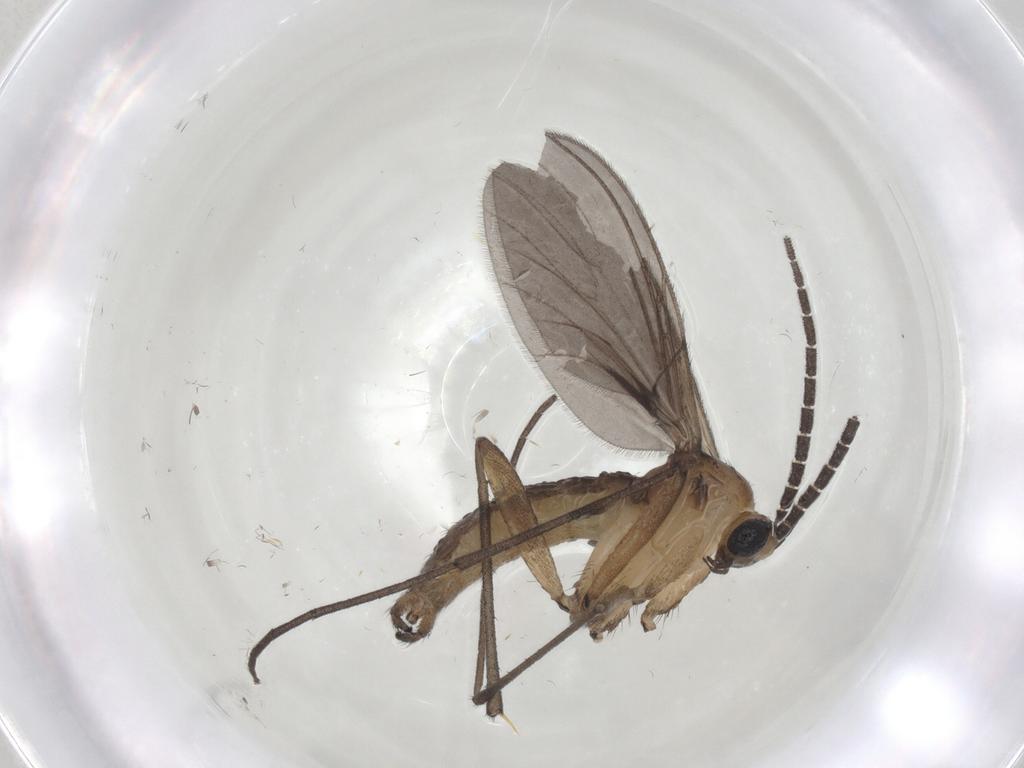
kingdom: Animalia
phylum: Arthropoda
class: Insecta
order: Diptera
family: Sciaridae
